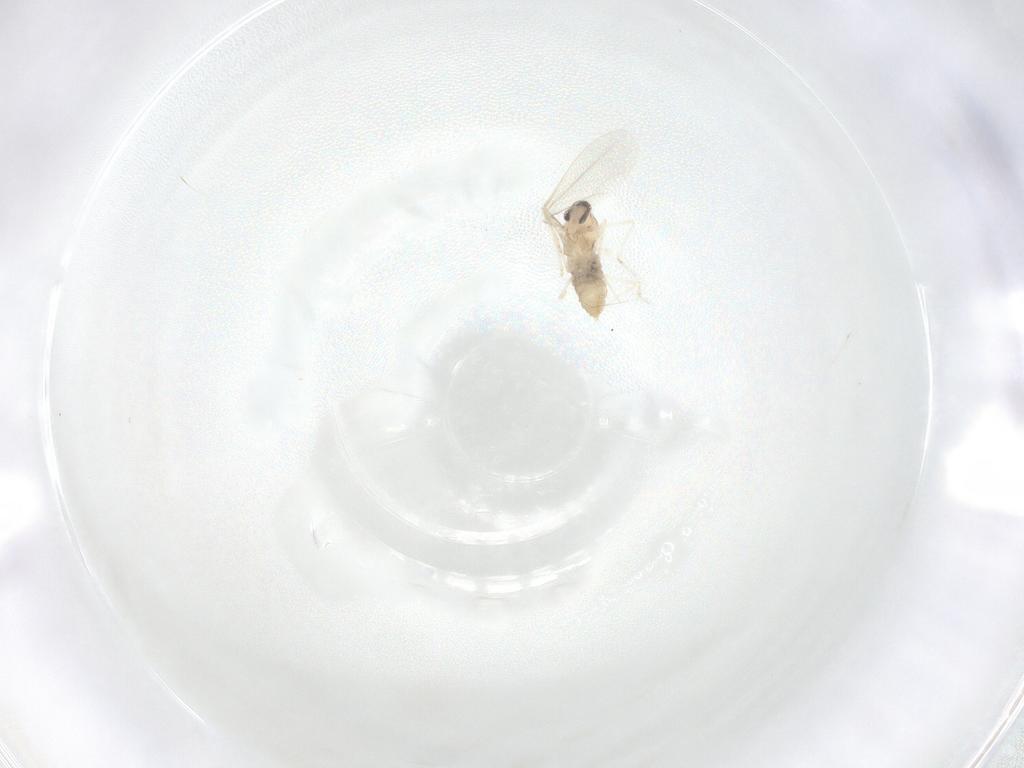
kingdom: Animalia
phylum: Arthropoda
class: Insecta
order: Diptera
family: Cecidomyiidae
